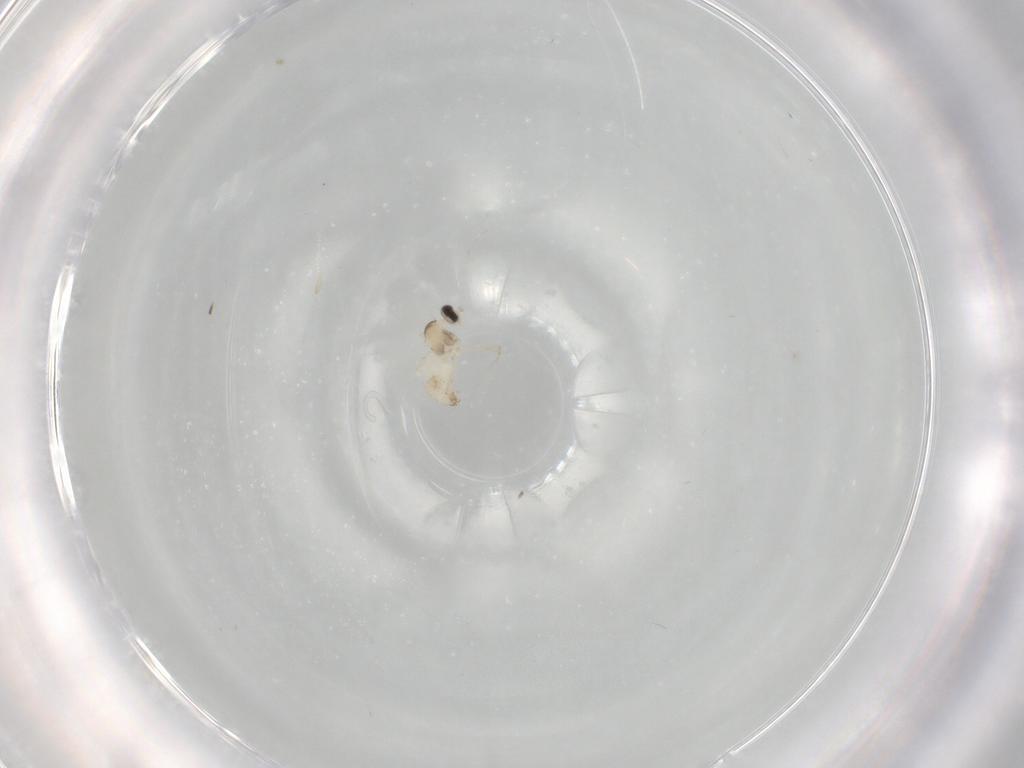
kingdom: Animalia
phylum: Arthropoda
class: Insecta
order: Diptera
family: Cecidomyiidae
